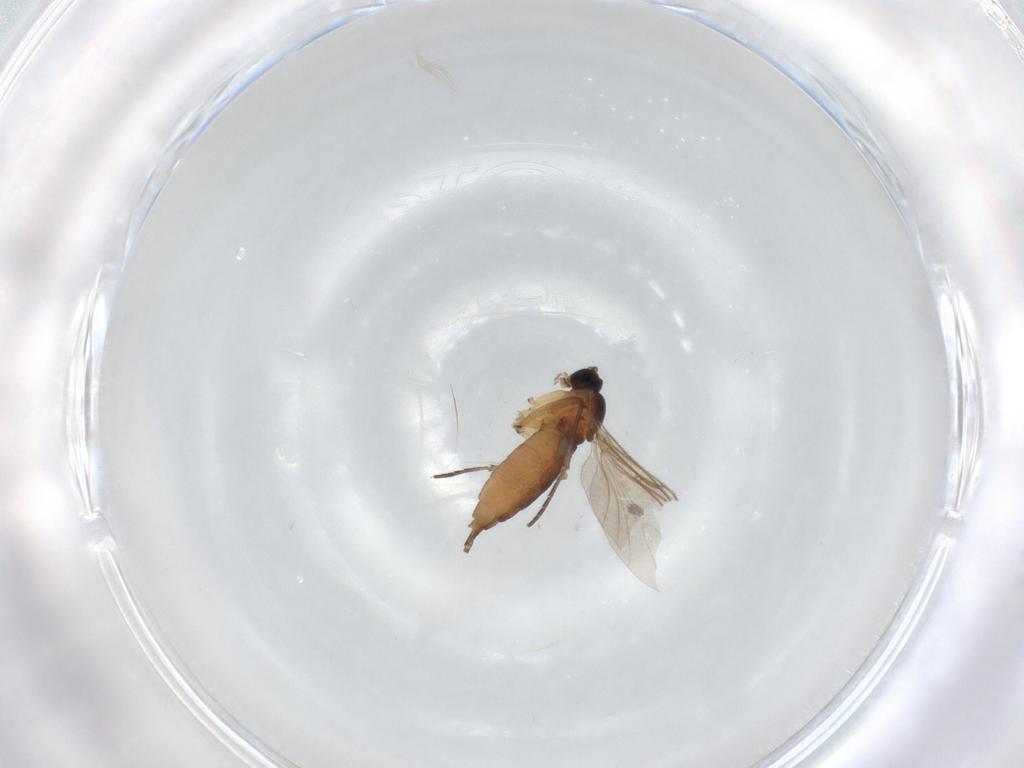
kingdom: Animalia
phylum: Arthropoda
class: Insecta
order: Diptera
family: Sciaridae
